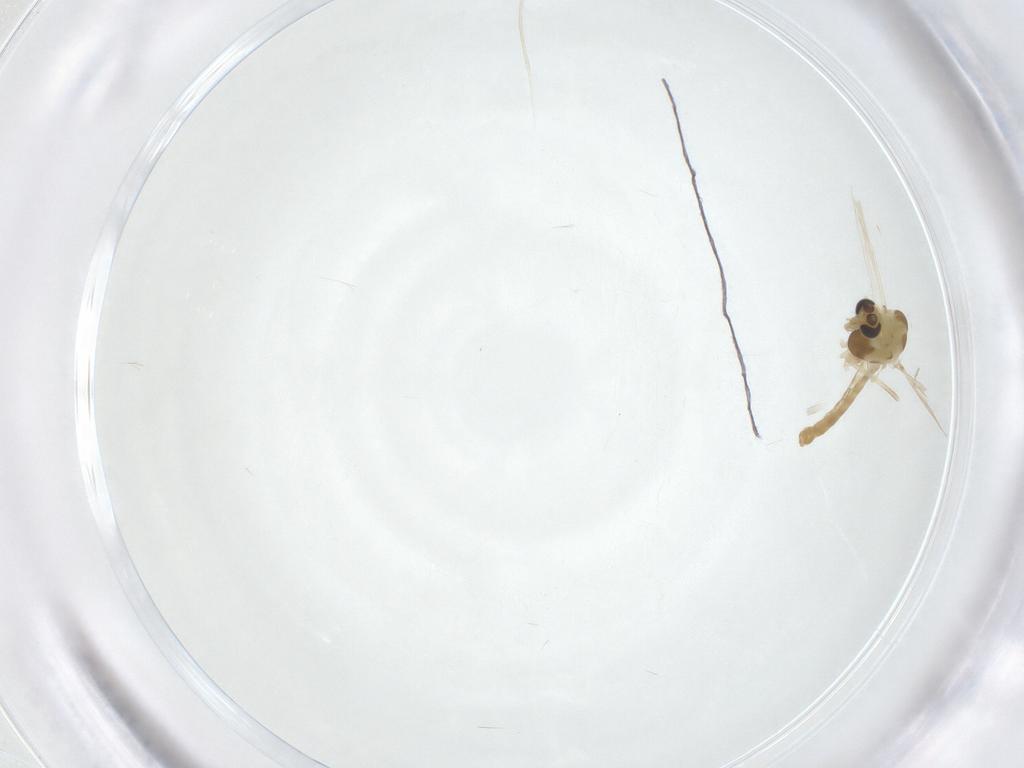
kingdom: Animalia
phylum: Arthropoda
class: Insecta
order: Diptera
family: Chironomidae
